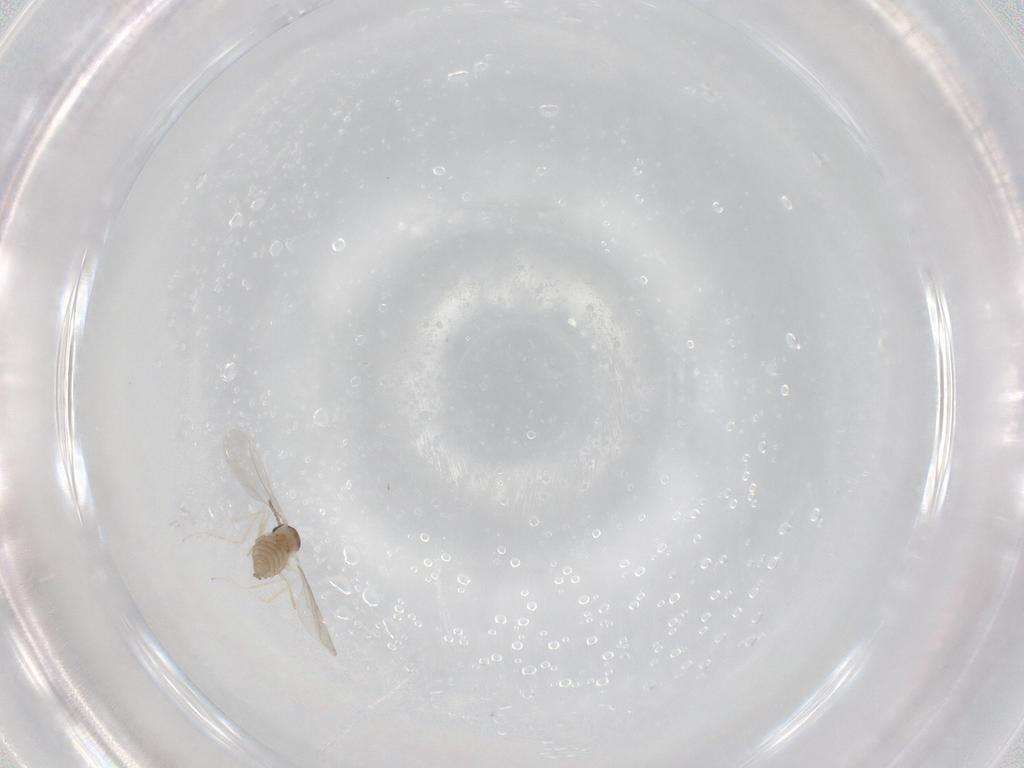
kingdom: Animalia
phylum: Arthropoda
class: Insecta
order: Diptera
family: Cecidomyiidae
